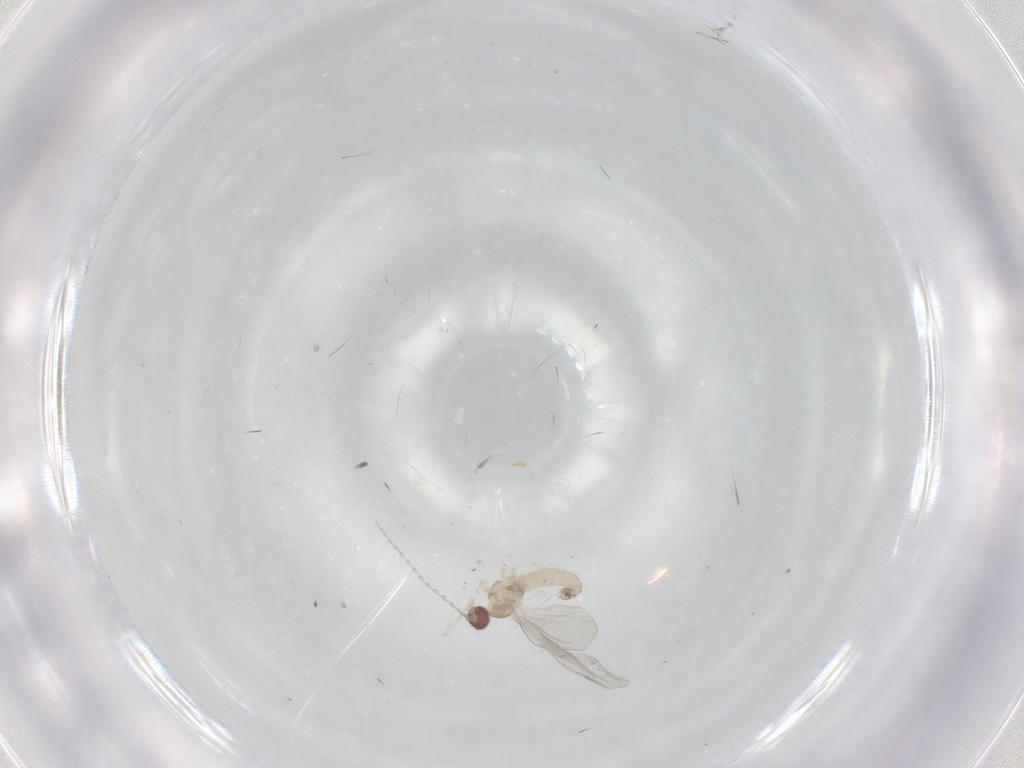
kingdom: Animalia
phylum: Arthropoda
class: Insecta
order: Diptera
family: Cecidomyiidae
